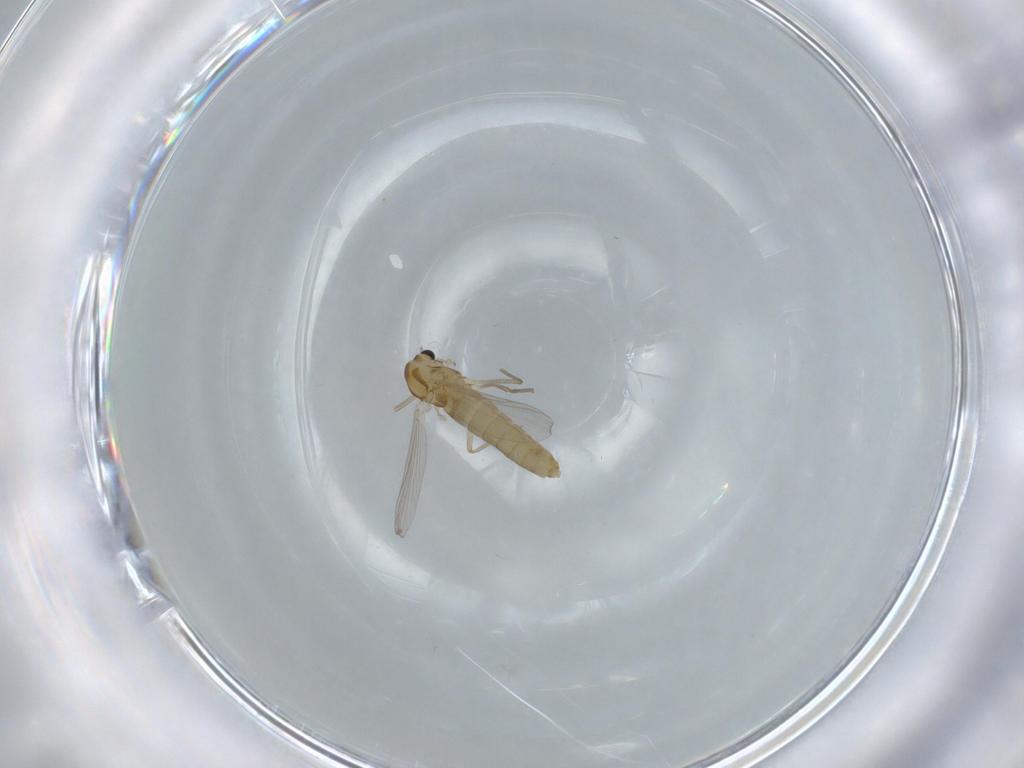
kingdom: Animalia
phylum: Arthropoda
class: Insecta
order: Diptera
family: Chironomidae
